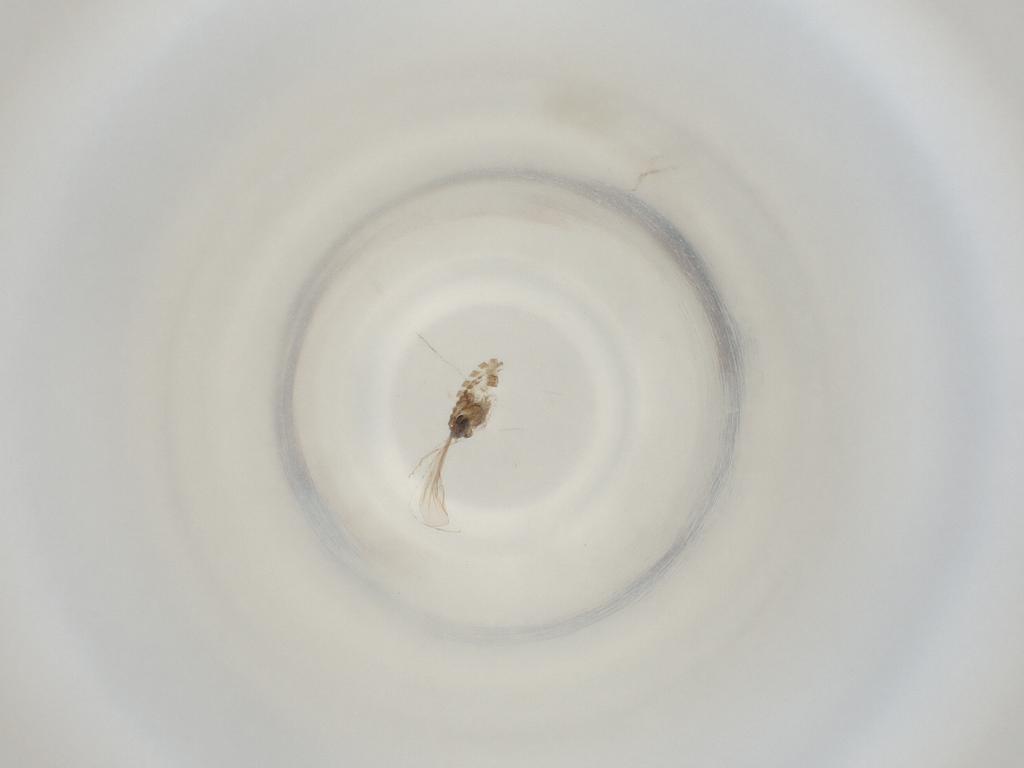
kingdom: Animalia
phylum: Arthropoda
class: Insecta
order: Diptera
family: Cecidomyiidae
